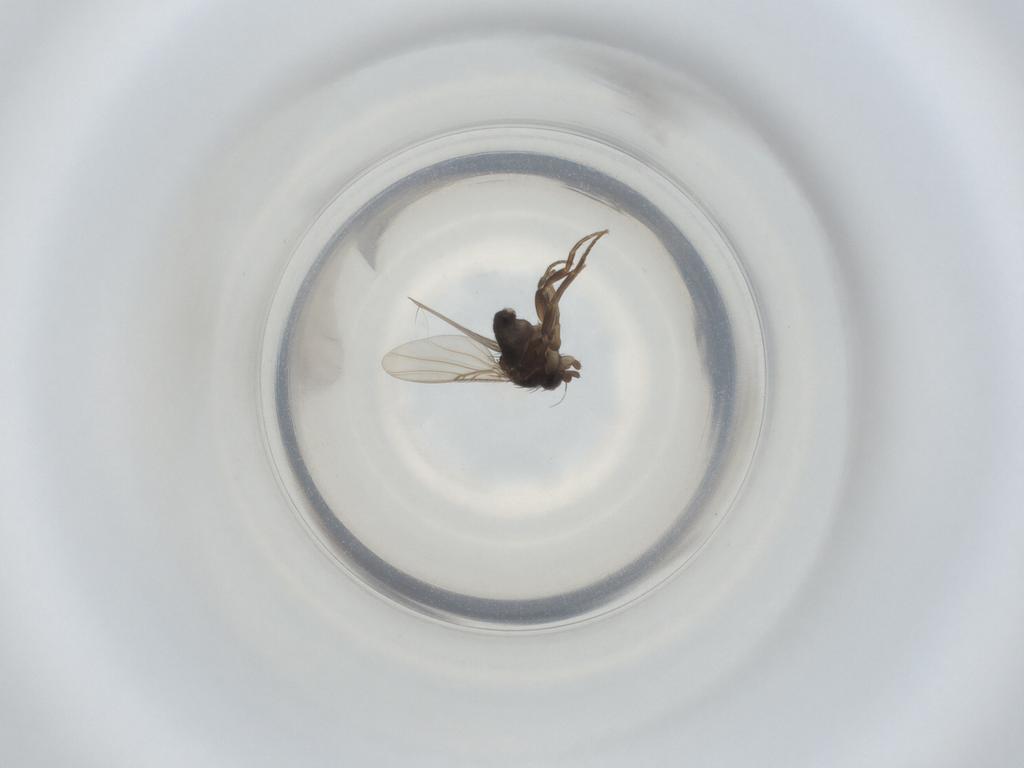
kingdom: Animalia
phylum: Arthropoda
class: Insecta
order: Diptera
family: Phoridae
